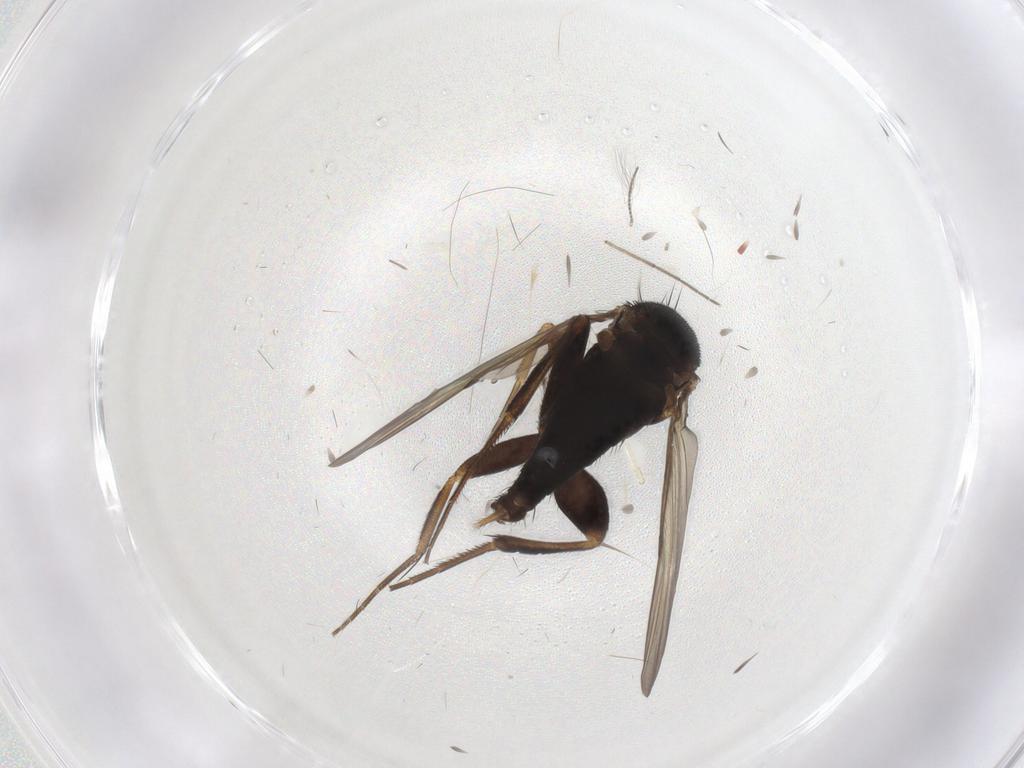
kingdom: Animalia
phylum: Arthropoda
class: Insecta
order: Diptera
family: Phoridae
